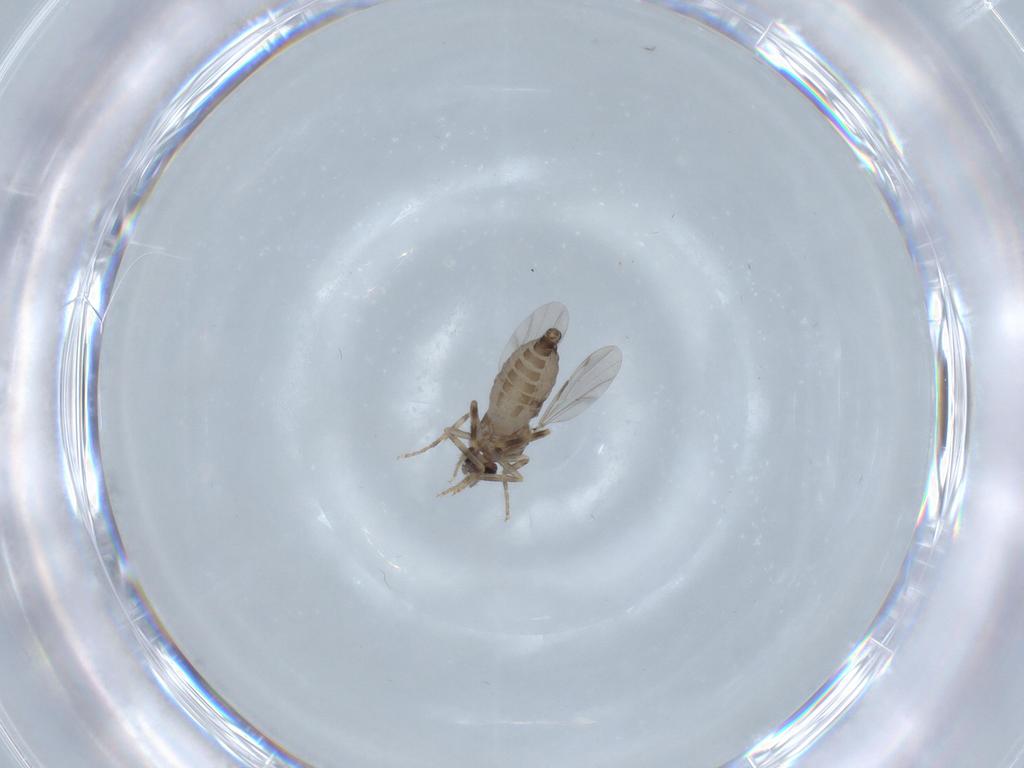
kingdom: Animalia
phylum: Arthropoda
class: Insecta
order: Diptera
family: Ceratopogonidae
